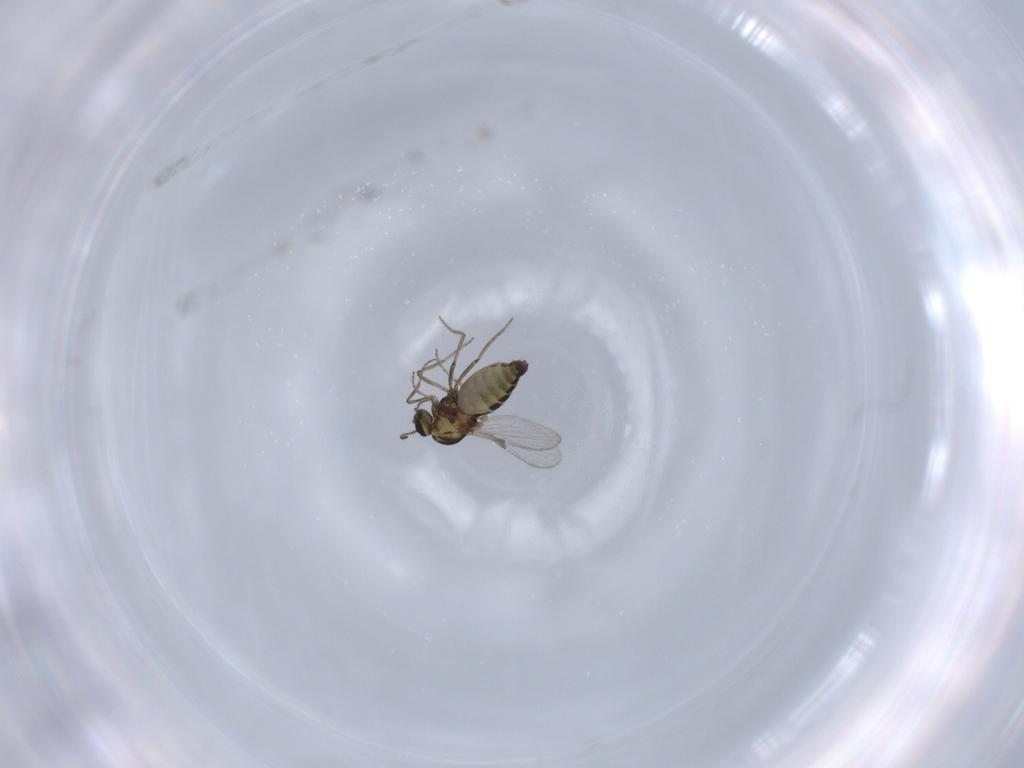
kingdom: Animalia
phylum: Arthropoda
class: Insecta
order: Diptera
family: Ceratopogonidae
